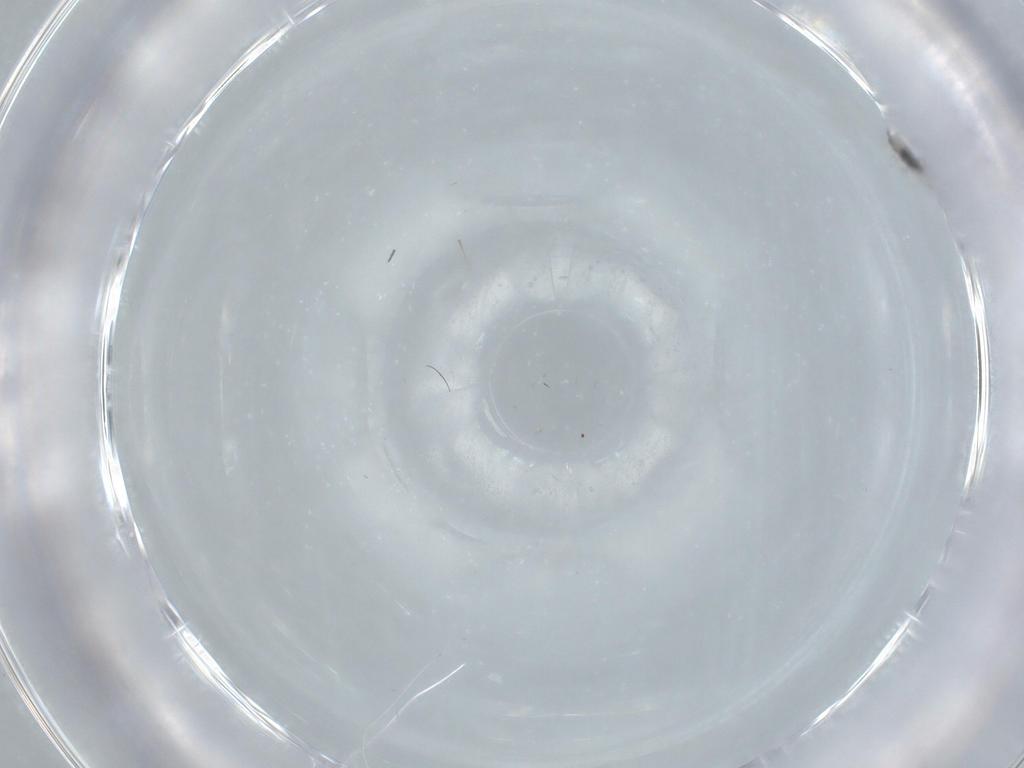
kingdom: Animalia
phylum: Arthropoda
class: Insecta
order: Hymenoptera
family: Mymaridae
